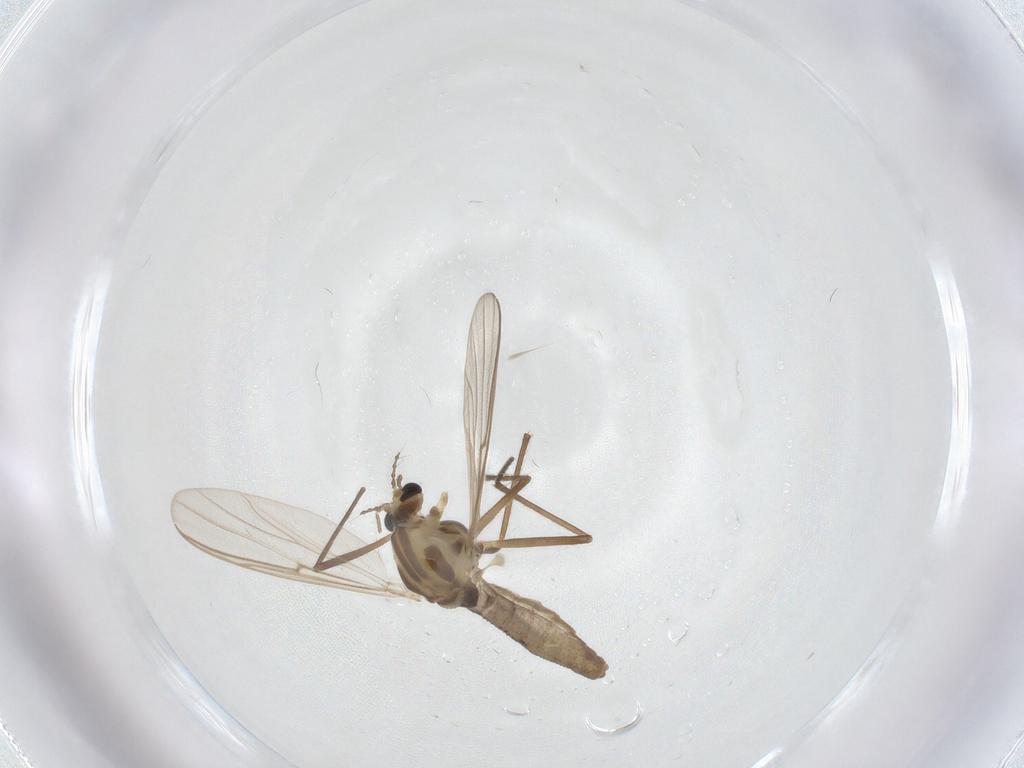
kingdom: Animalia
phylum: Arthropoda
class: Insecta
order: Diptera
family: Chironomidae
